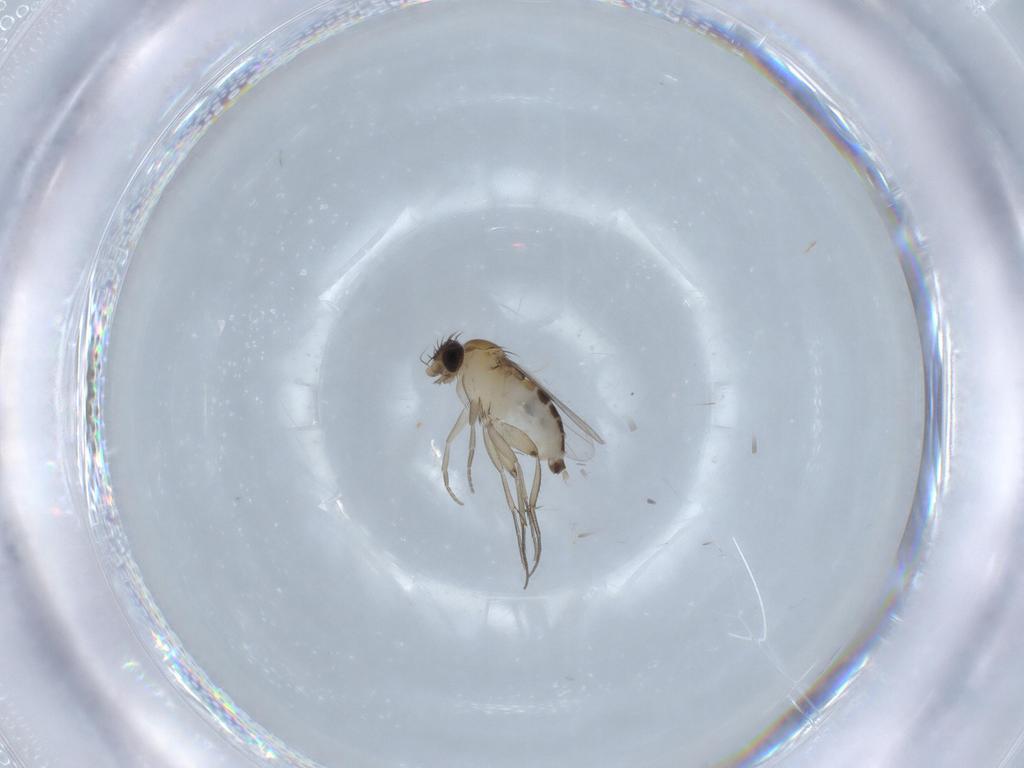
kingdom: Animalia
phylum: Arthropoda
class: Insecta
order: Diptera
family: Phoridae
